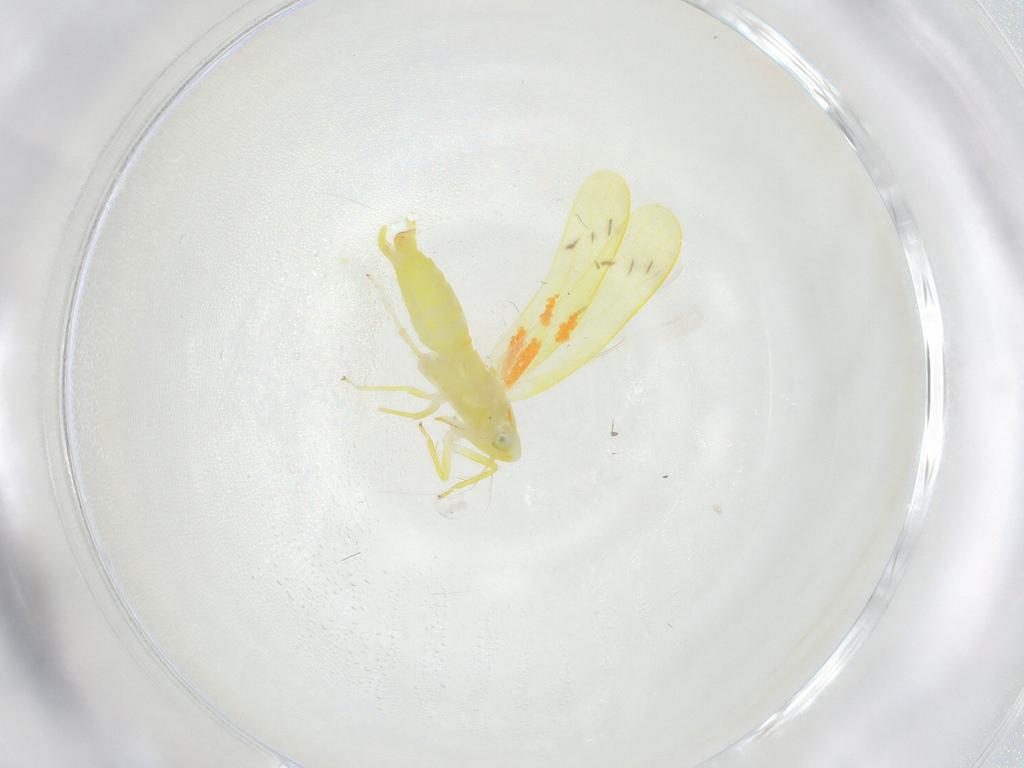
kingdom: Animalia
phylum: Arthropoda
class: Insecta
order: Hemiptera
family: Cicadellidae
